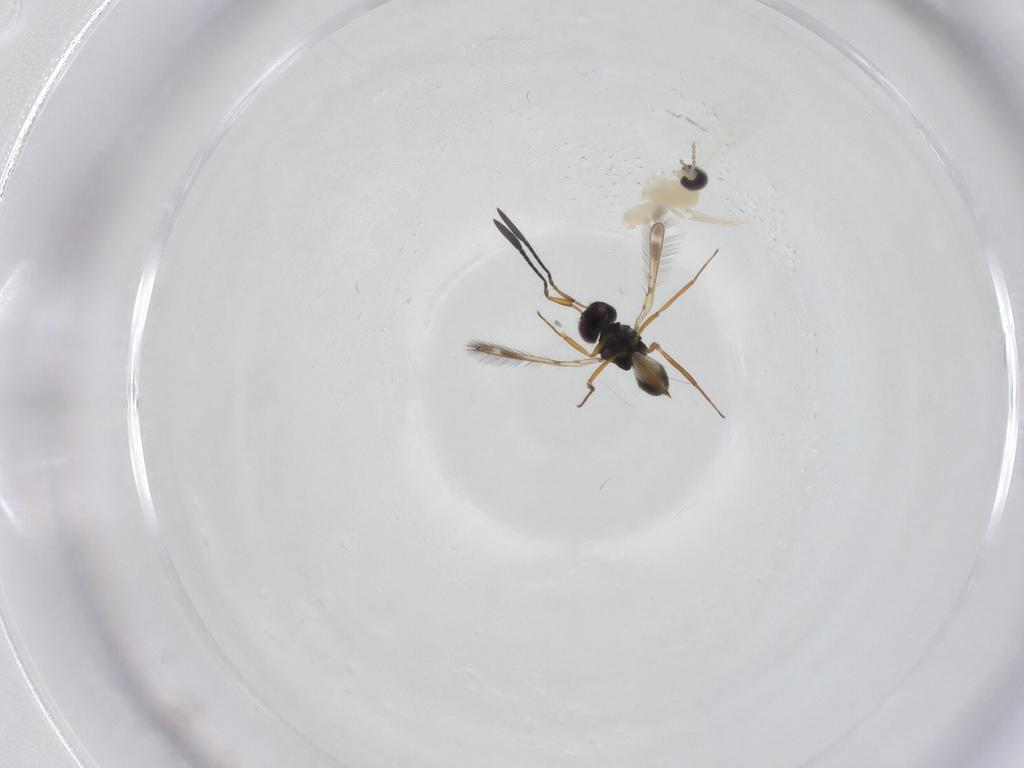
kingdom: Animalia
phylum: Arthropoda
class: Insecta
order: Diptera
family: Cecidomyiidae
